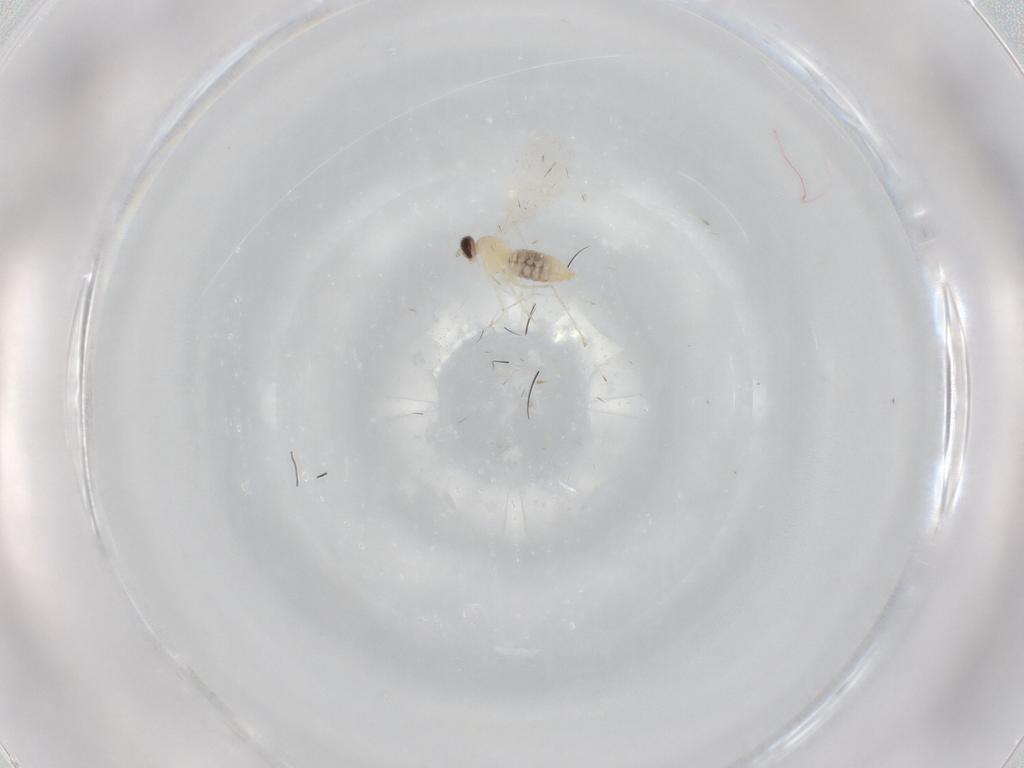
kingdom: Animalia
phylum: Arthropoda
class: Insecta
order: Diptera
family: Cecidomyiidae
